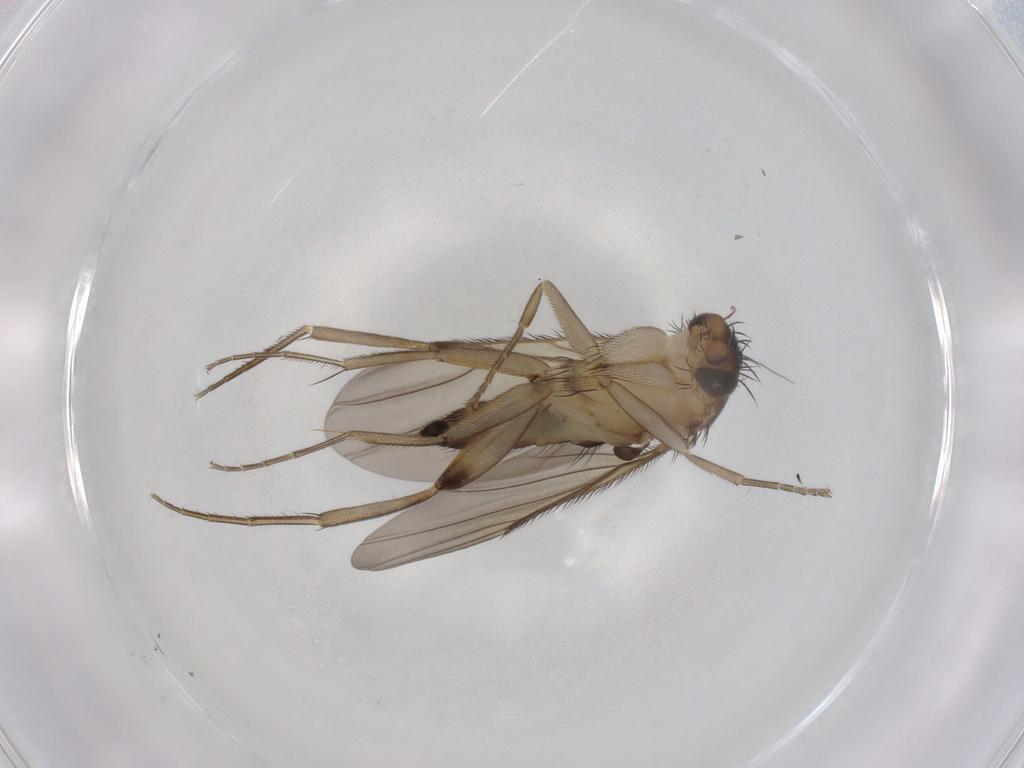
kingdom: Animalia
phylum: Arthropoda
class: Insecta
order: Diptera
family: Phoridae
